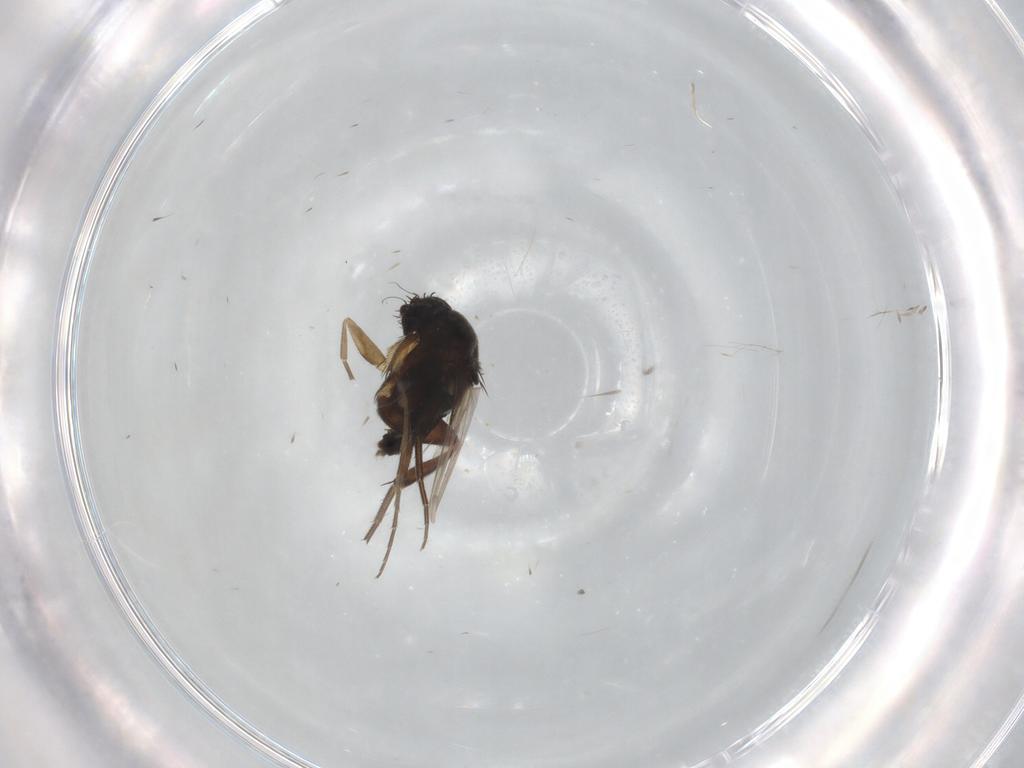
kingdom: Animalia
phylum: Arthropoda
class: Insecta
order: Diptera
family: Phoridae
